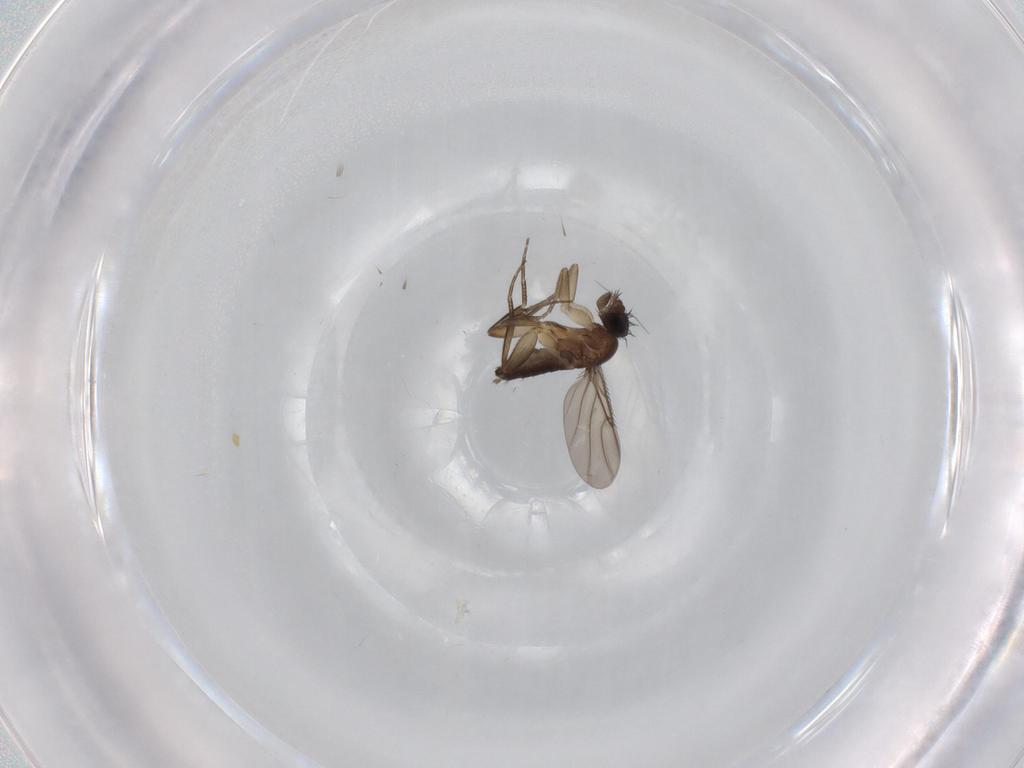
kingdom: Animalia
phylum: Arthropoda
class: Insecta
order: Diptera
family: Phoridae
